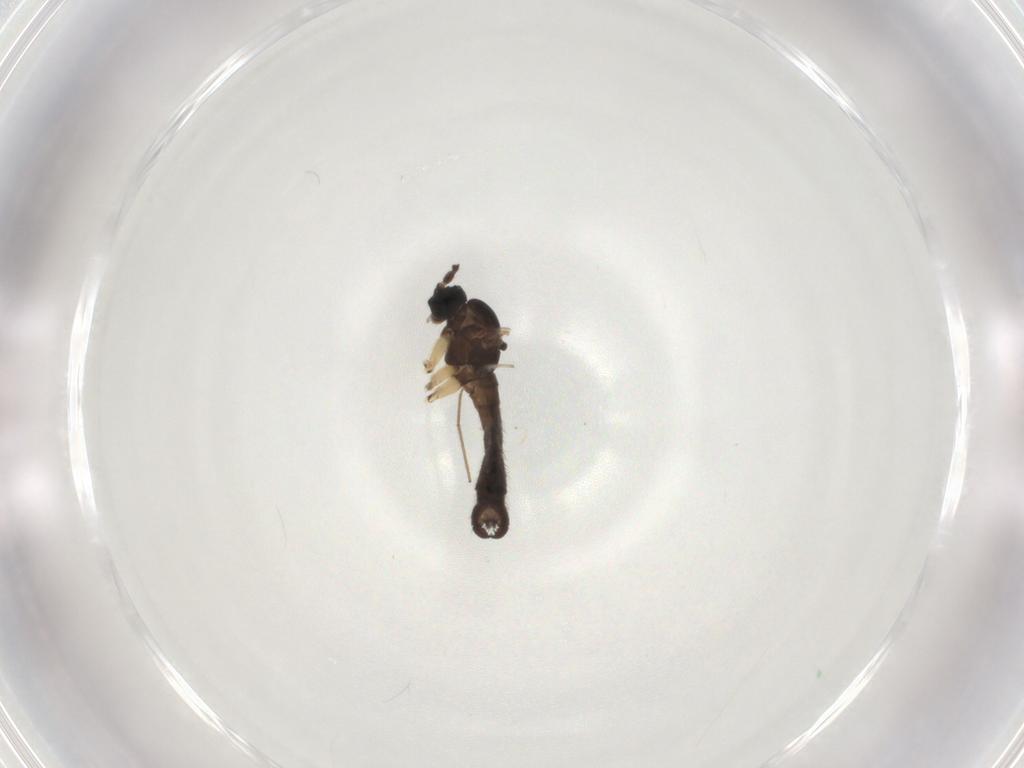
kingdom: Animalia
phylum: Arthropoda
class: Insecta
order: Diptera
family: Sciaridae
